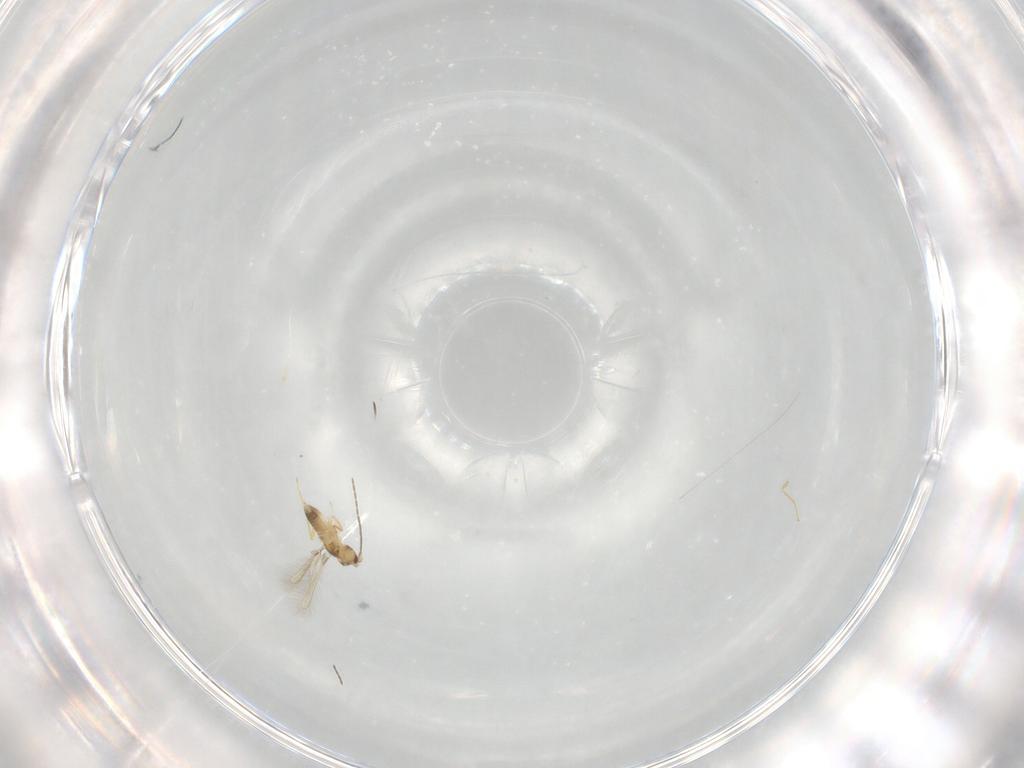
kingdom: Animalia
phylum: Arthropoda
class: Insecta
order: Hymenoptera
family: Mymaridae
